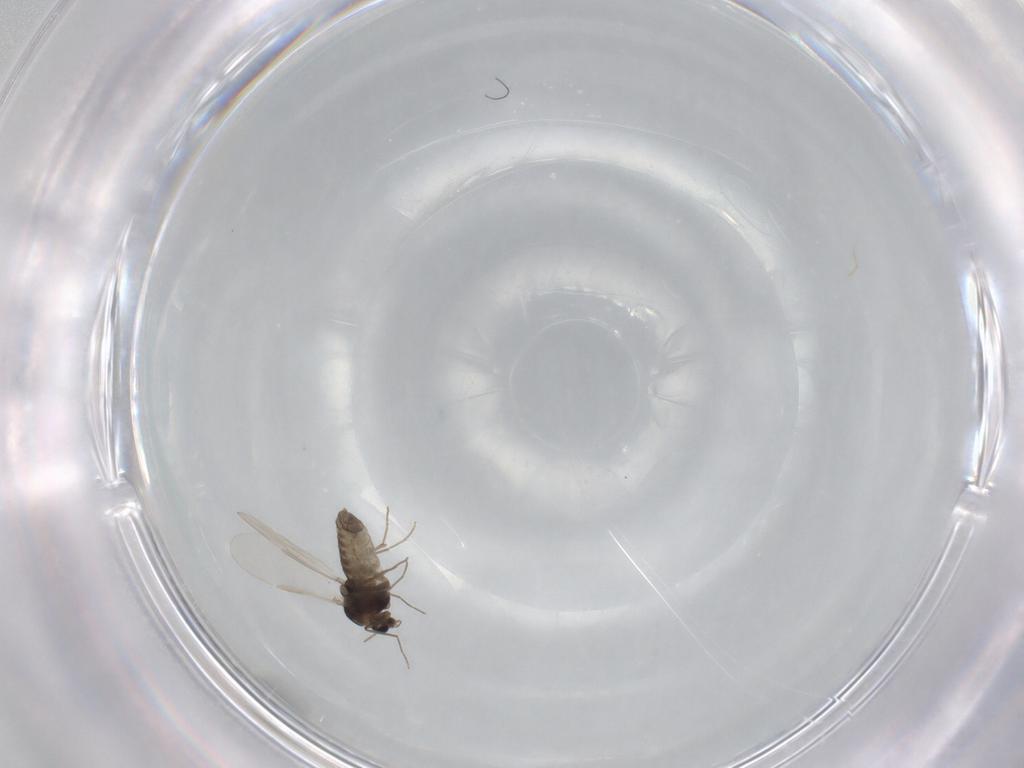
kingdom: Animalia
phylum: Arthropoda
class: Insecta
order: Diptera
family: Chironomidae
